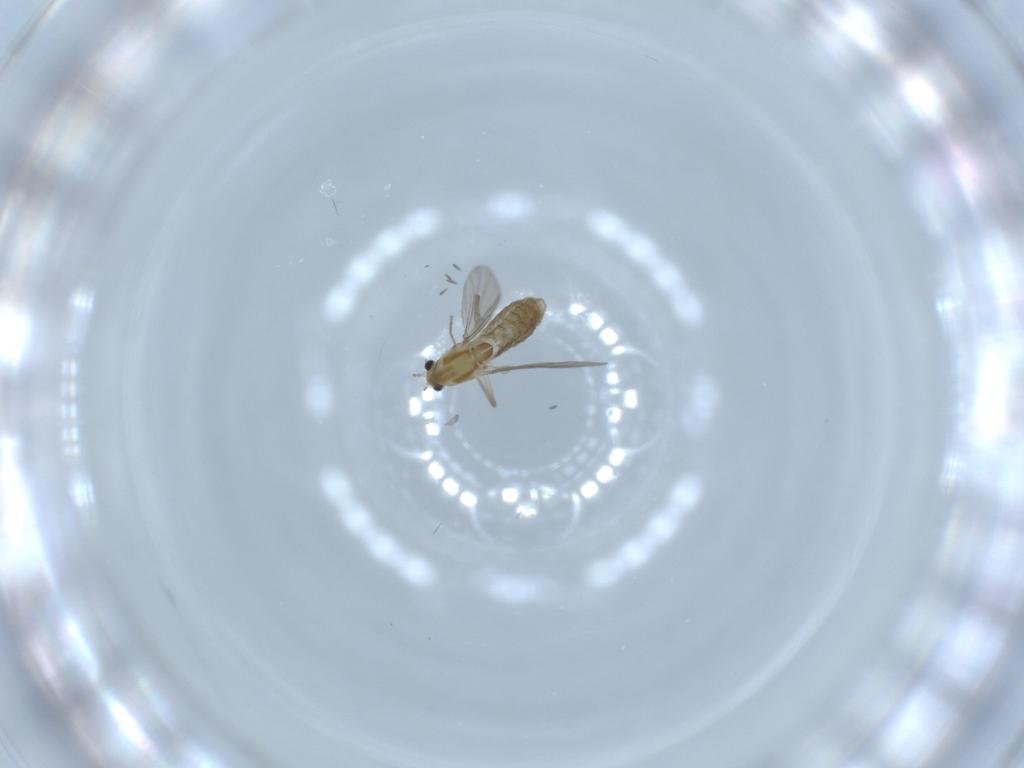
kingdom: Animalia
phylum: Arthropoda
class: Insecta
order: Diptera
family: Chironomidae
